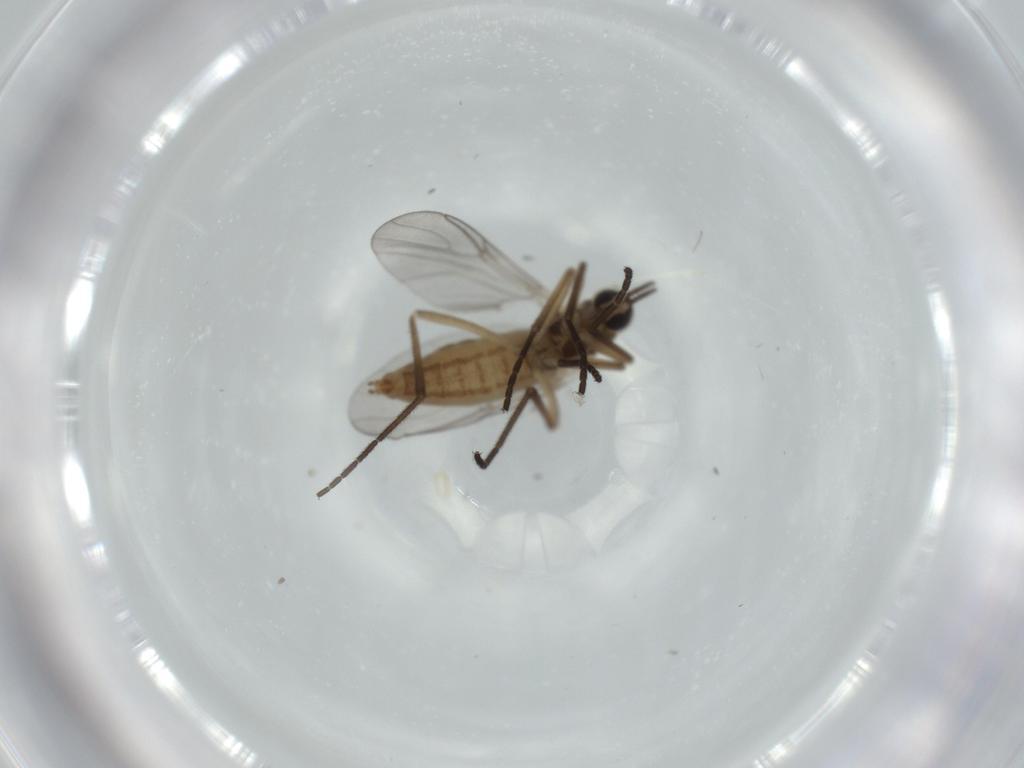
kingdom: Animalia
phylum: Arthropoda
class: Insecta
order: Diptera
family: Cecidomyiidae
